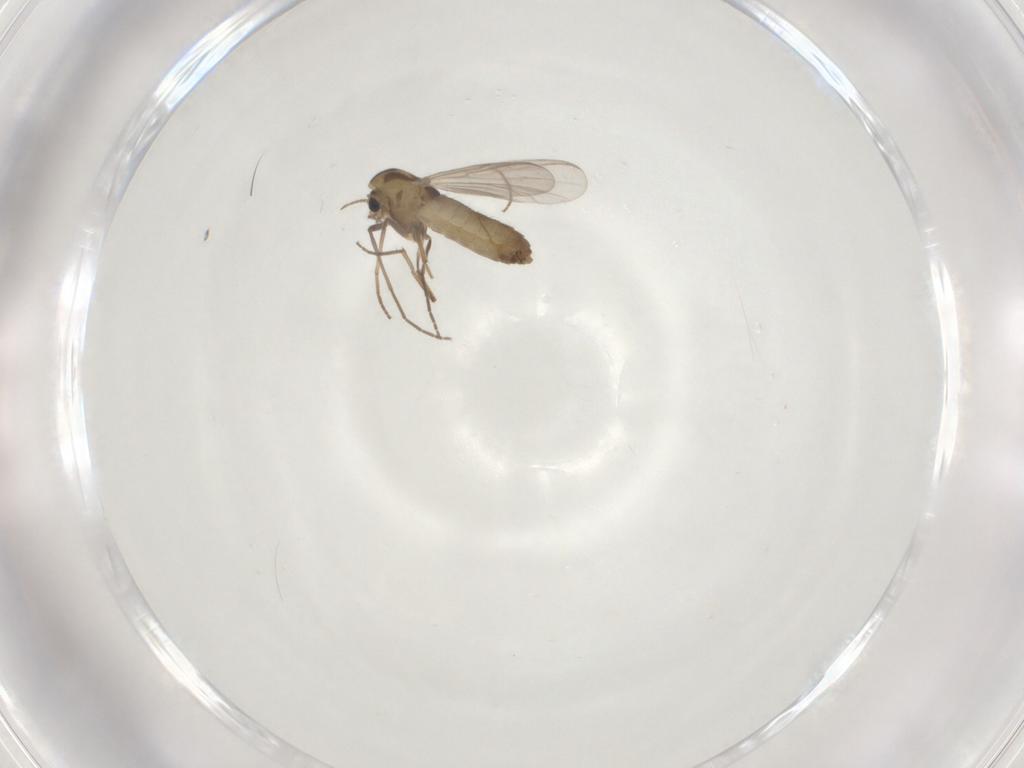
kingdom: Animalia
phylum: Arthropoda
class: Insecta
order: Diptera
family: Chironomidae
